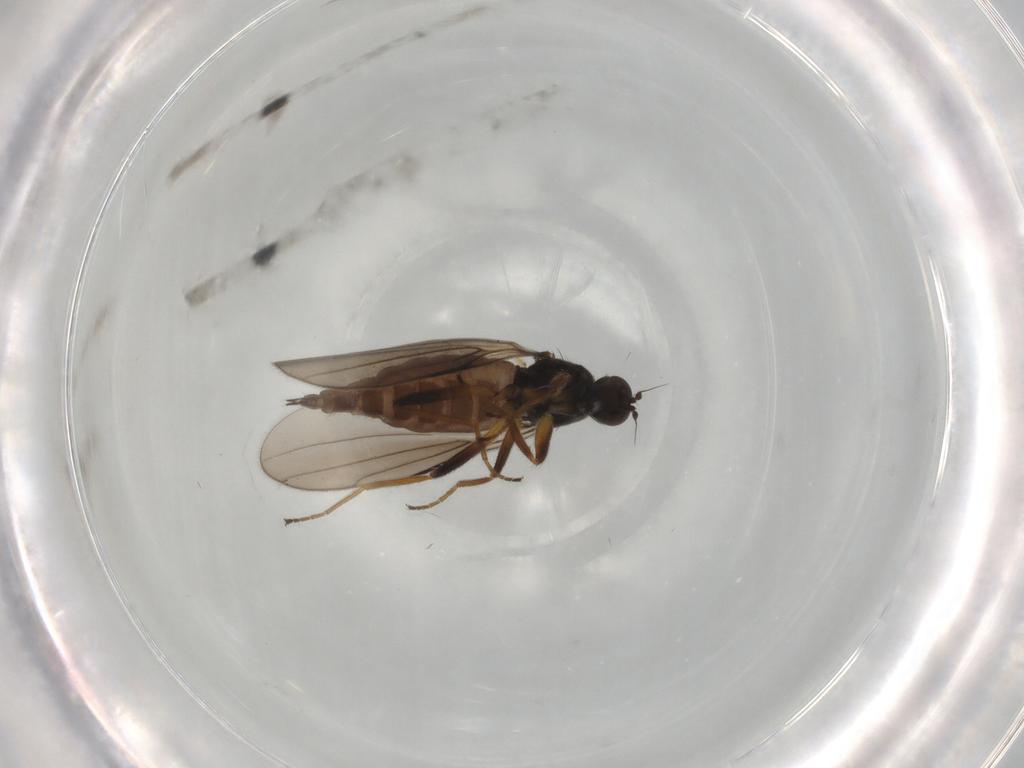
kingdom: Animalia
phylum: Arthropoda
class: Insecta
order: Diptera
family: Hybotidae
